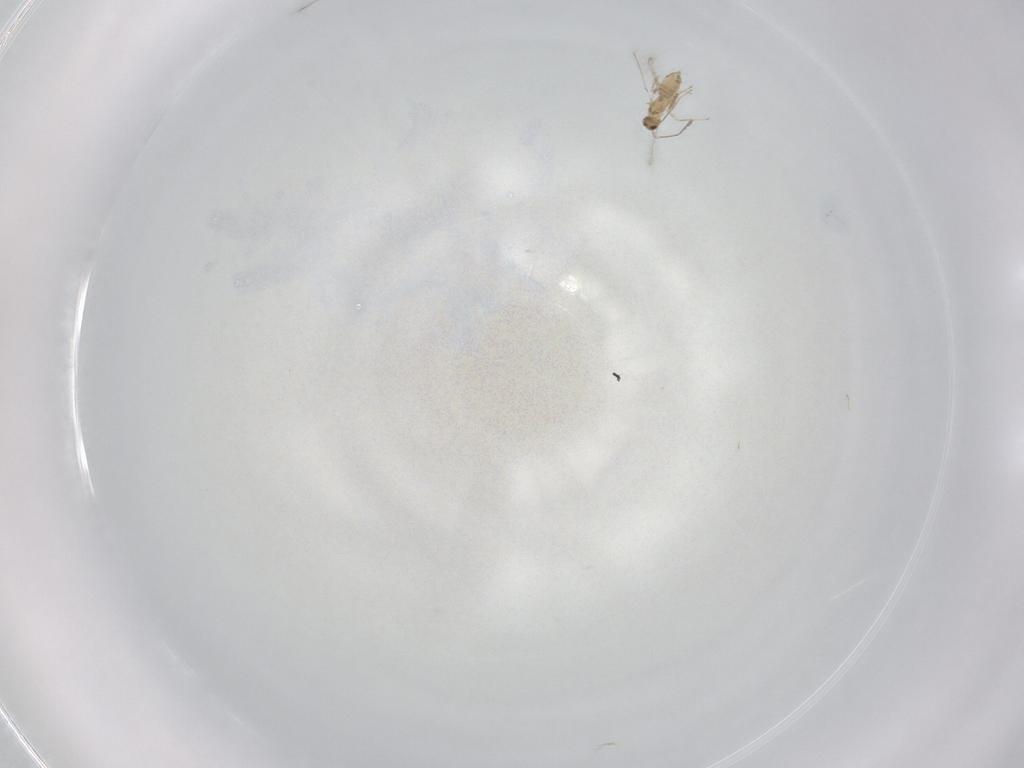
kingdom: Animalia
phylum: Arthropoda
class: Insecta
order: Hymenoptera
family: Mymaridae
